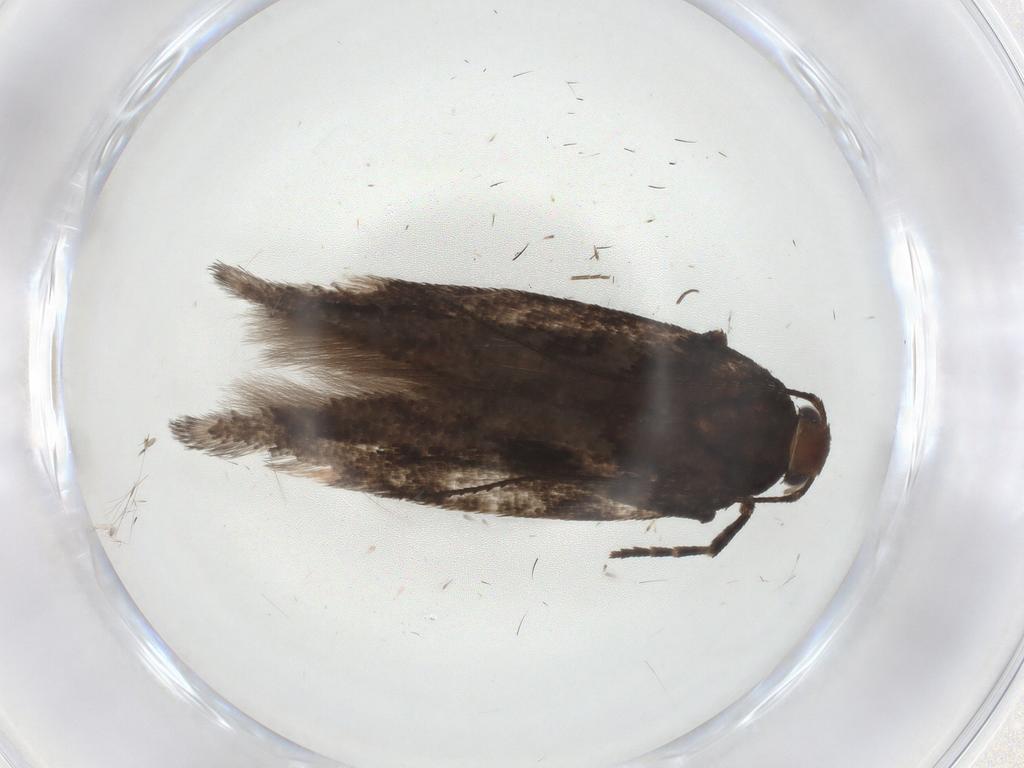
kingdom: Animalia
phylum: Arthropoda
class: Insecta
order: Lepidoptera
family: Gelechiidae
